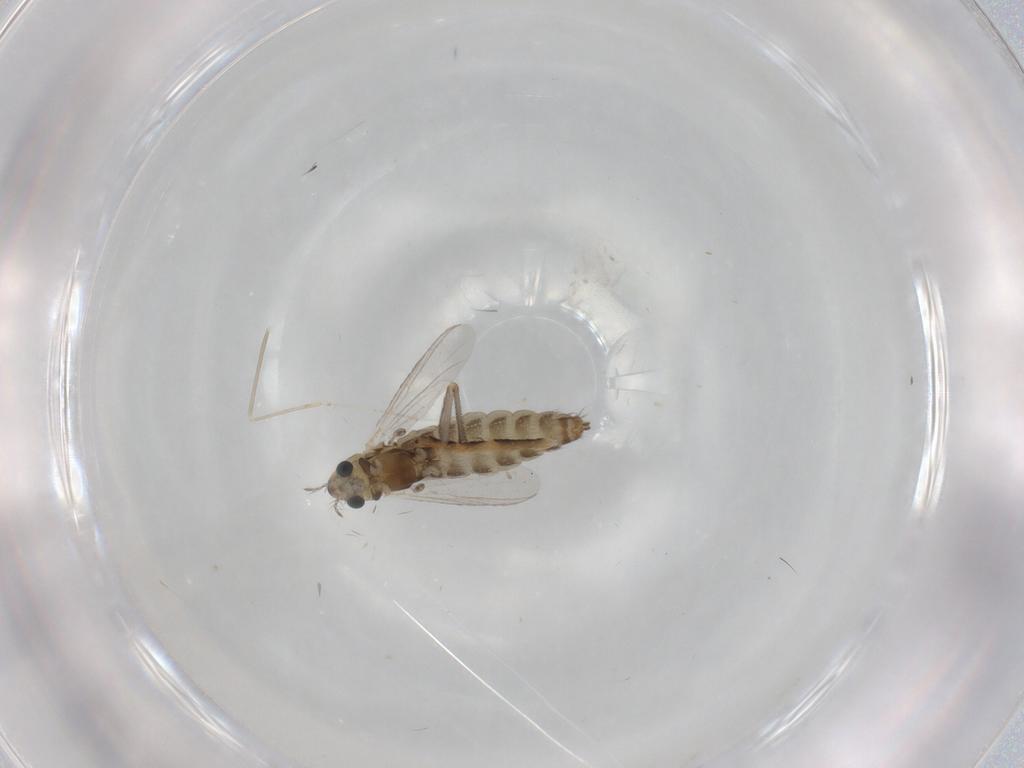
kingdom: Animalia
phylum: Arthropoda
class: Insecta
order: Diptera
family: Chironomidae
